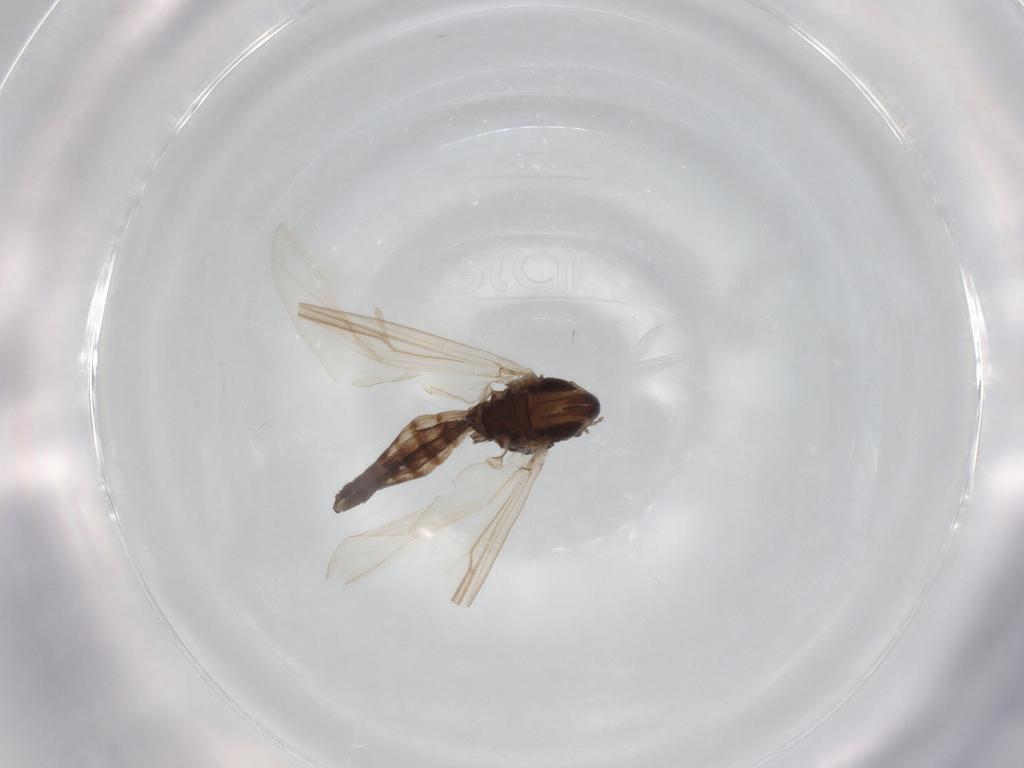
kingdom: Animalia
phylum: Arthropoda
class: Insecta
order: Diptera
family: Chironomidae
